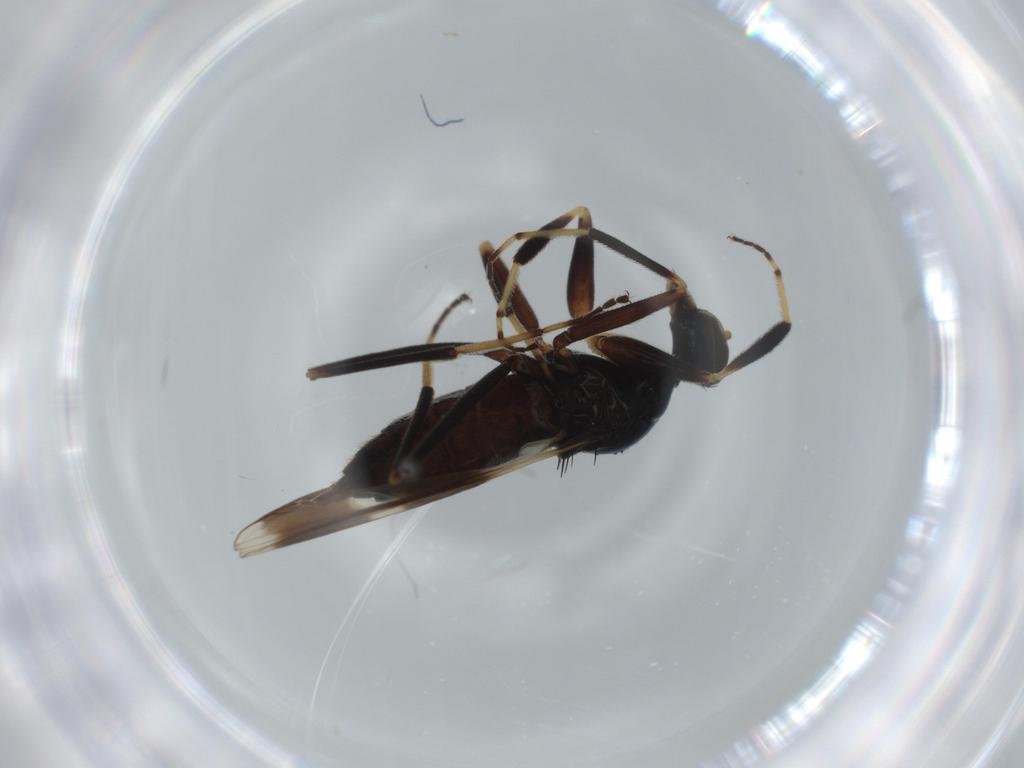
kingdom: Animalia
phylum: Arthropoda
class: Insecta
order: Diptera
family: Hybotidae
